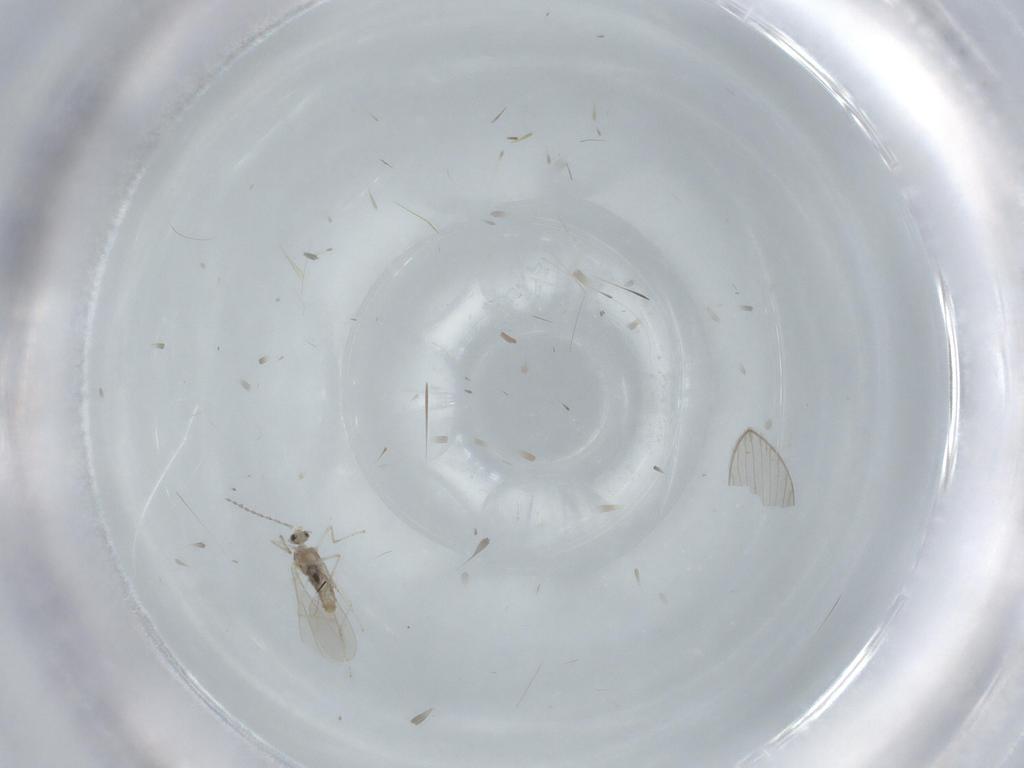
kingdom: Animalia
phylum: Arthropoda
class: Insecta
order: Diptera
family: Cecidomyiidae
